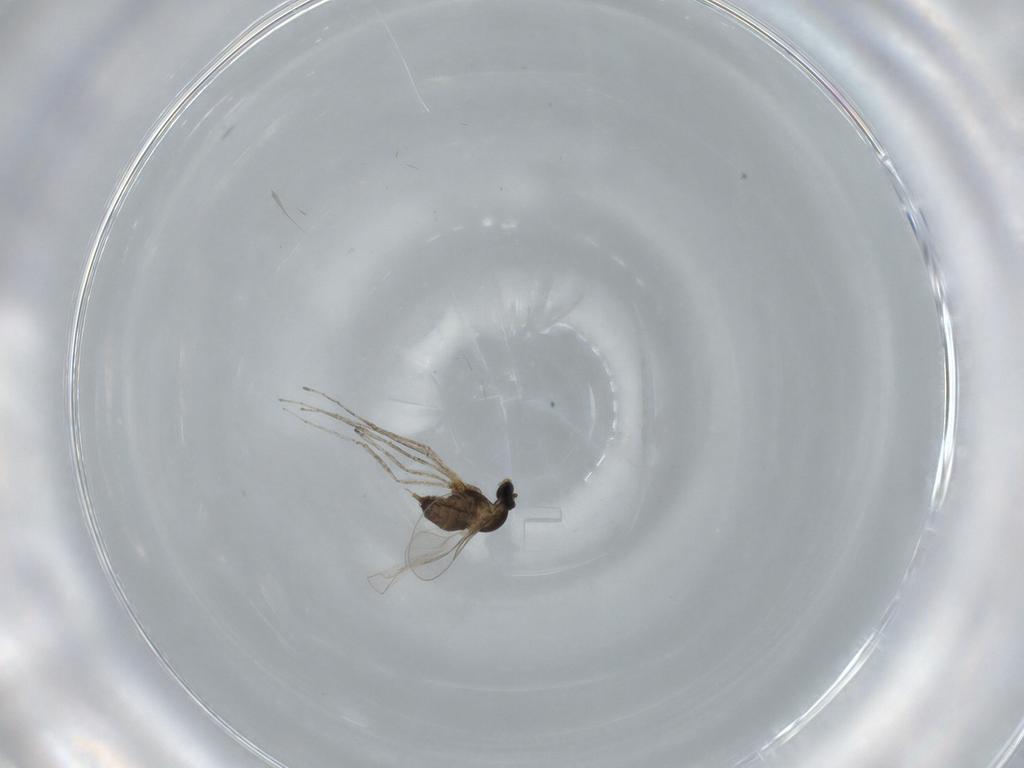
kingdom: Animalia
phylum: Arthropoda
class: Insecta
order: Diptera
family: Cecidomyiidae
